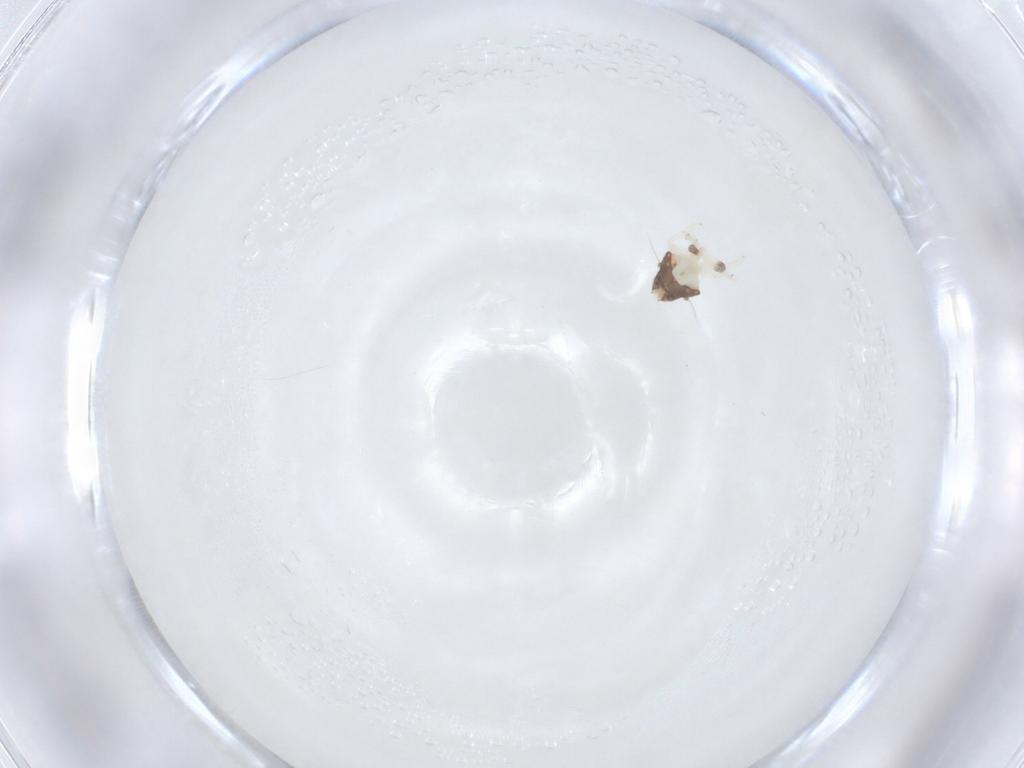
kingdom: Animalia
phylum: Arthropoda
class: Insecta
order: Hemiptera
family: Nogodinidae
